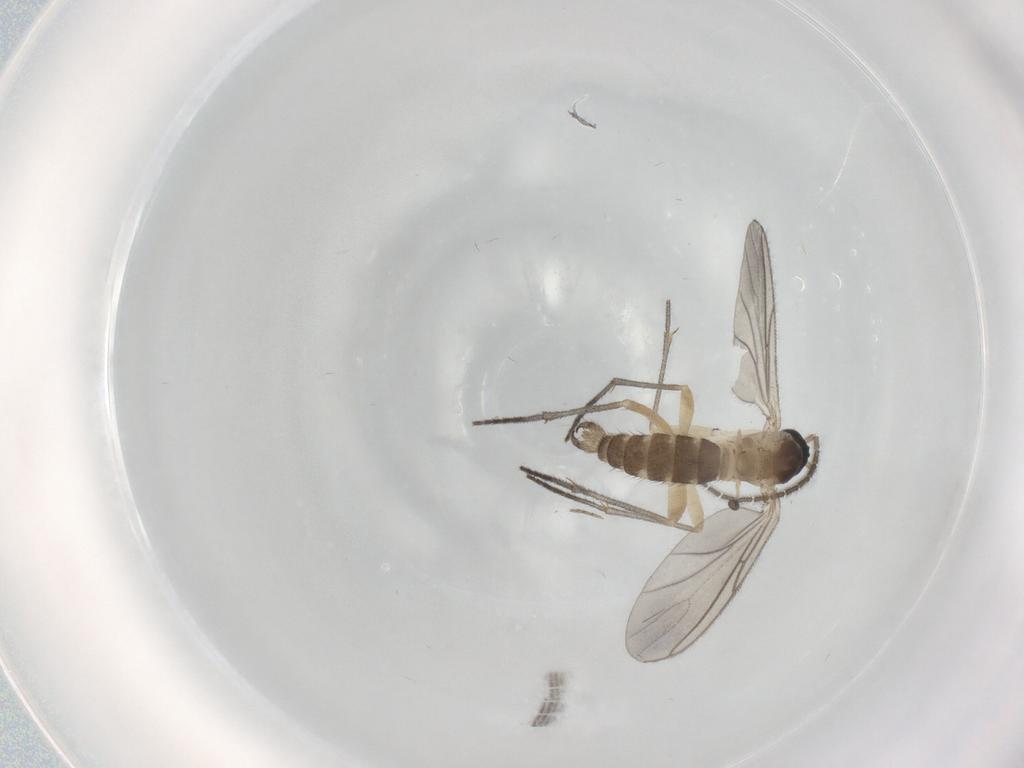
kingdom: Animalia
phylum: Arthropoda
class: Insecta
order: Diptera
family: Sciaridae
